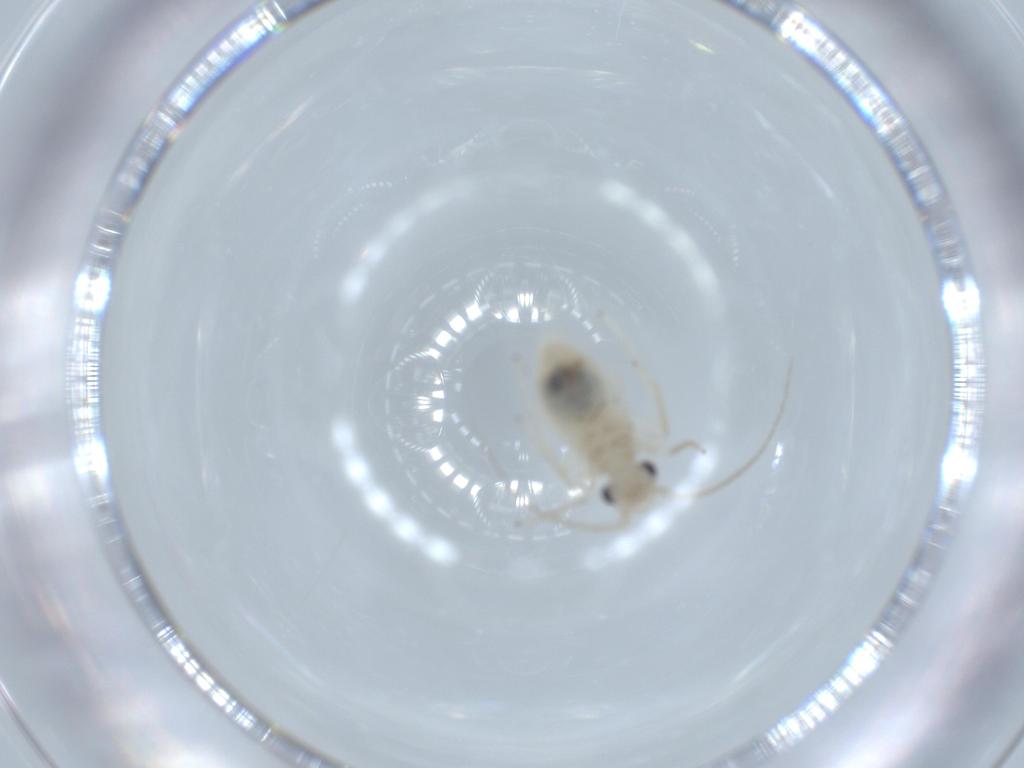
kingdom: Animalia
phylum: Arthropoda
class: Insecta
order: Psocodea
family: Caeciliusidae
